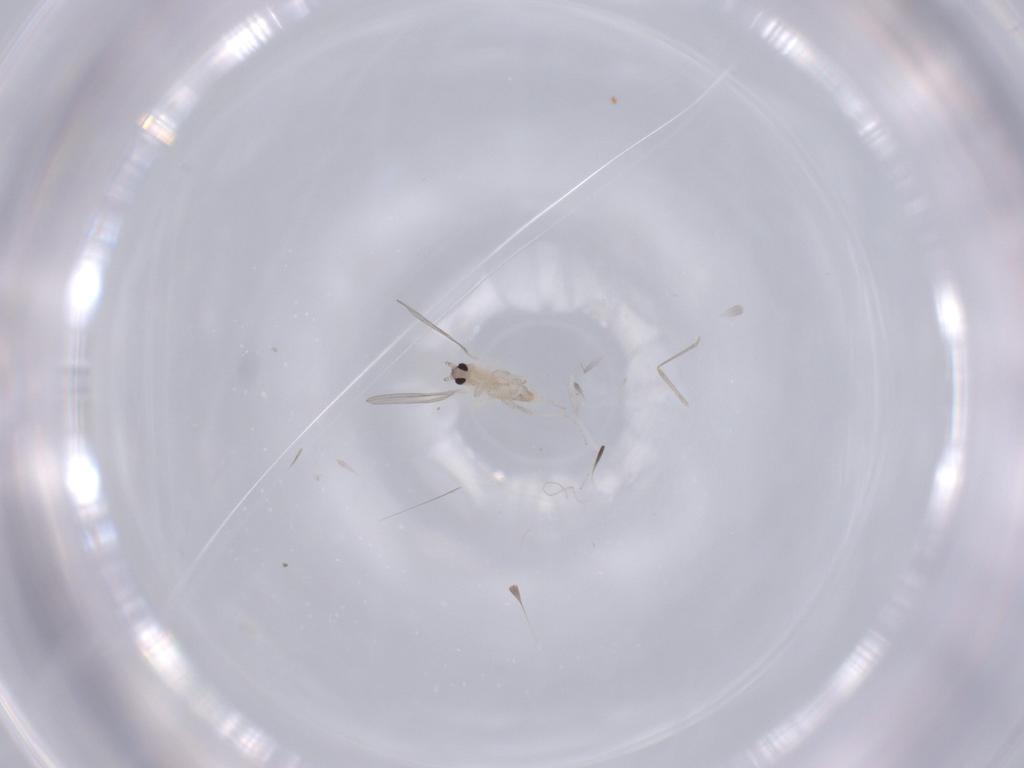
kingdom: Animalia
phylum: Arthropoda
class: Insecta
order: Diptera
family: Cecidomyiidae
